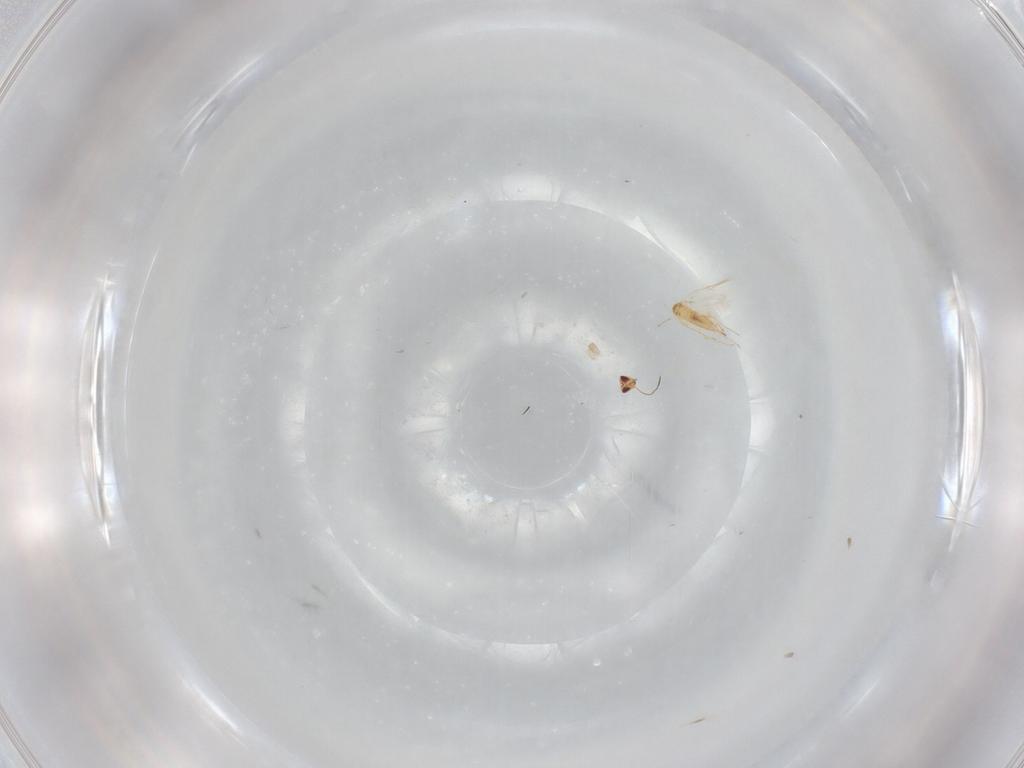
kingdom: Animalia
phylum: Arthropoda
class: Insecta
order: Hymenoptera
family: Mymaridae
